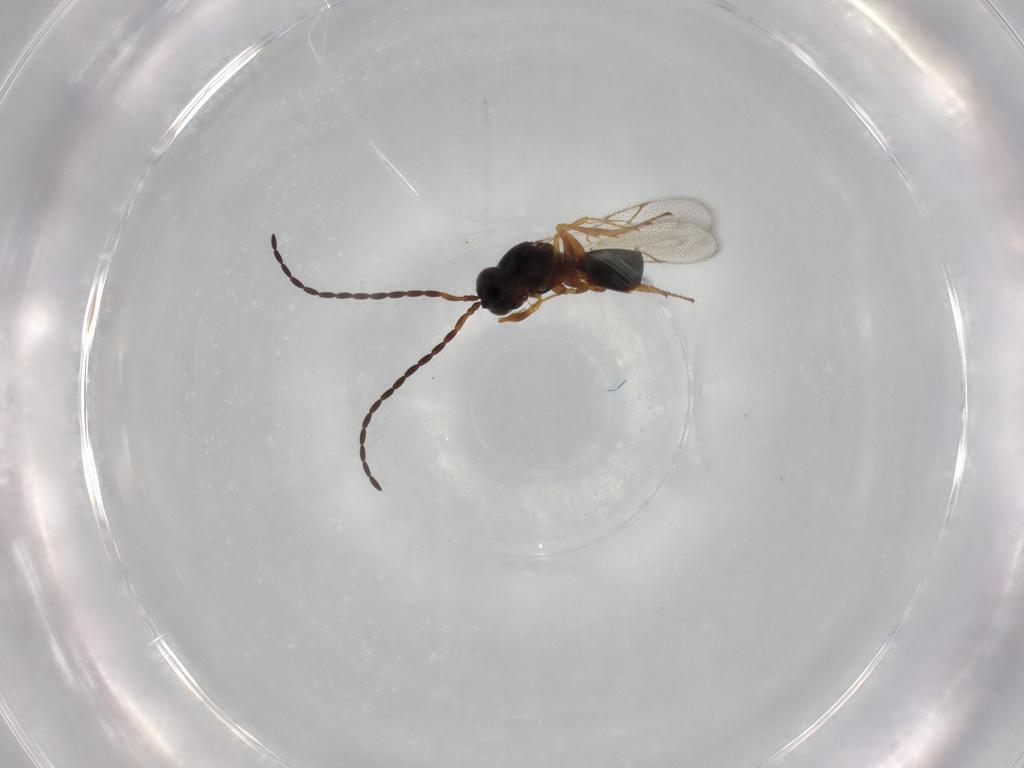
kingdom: Animalia
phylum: Arthropoda
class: Insecta
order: Hymenoptera
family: Figitidae
